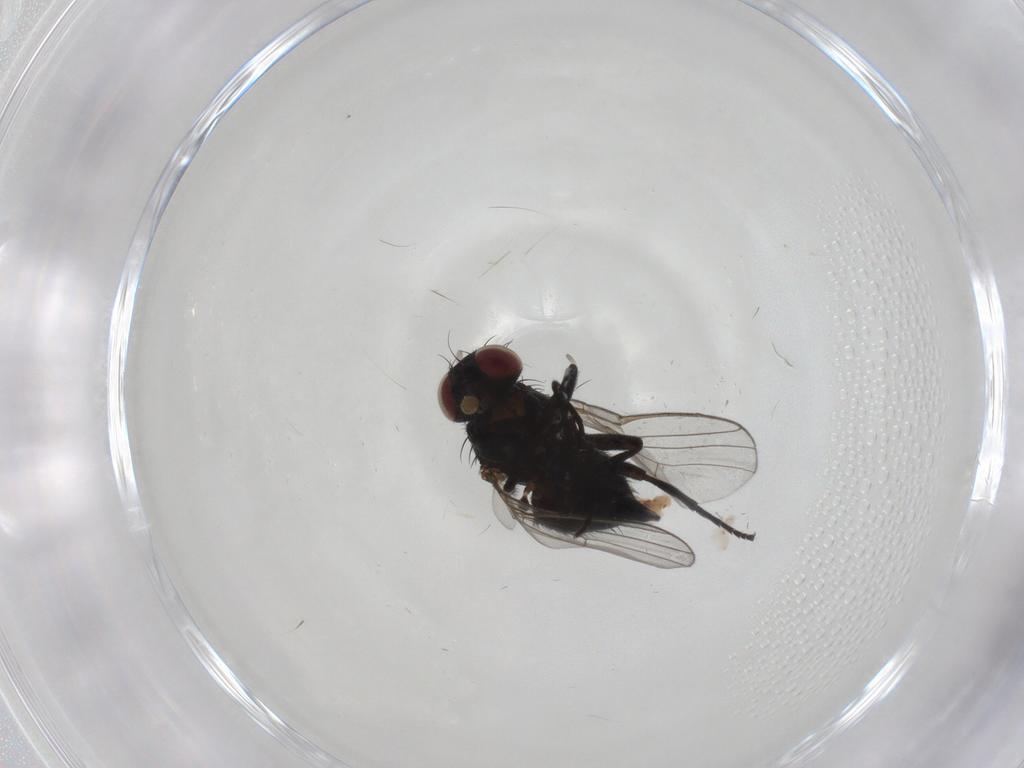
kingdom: Animalia
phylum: Arthropoda
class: Insecta
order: Diptera
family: Agromyzidae
